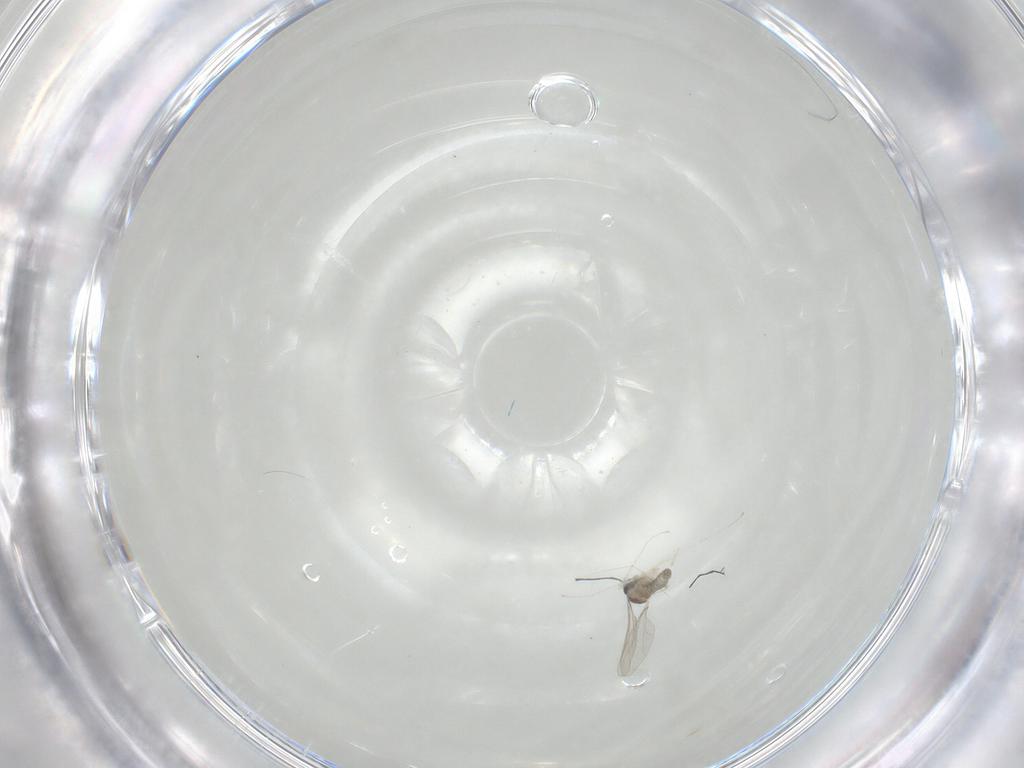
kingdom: Animalia
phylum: Arthropoda
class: Insecta
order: Diptera
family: Cecidomyiidae
